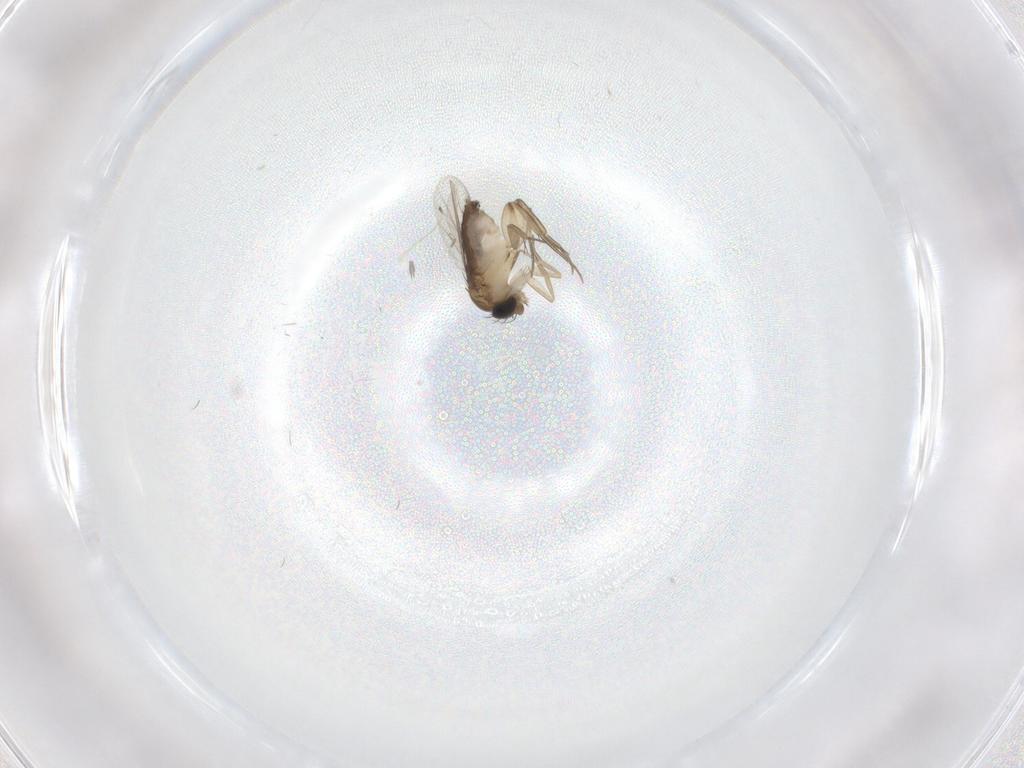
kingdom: Animalia
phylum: Arthropoda
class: Insecta
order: Diptera
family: Phoridae
